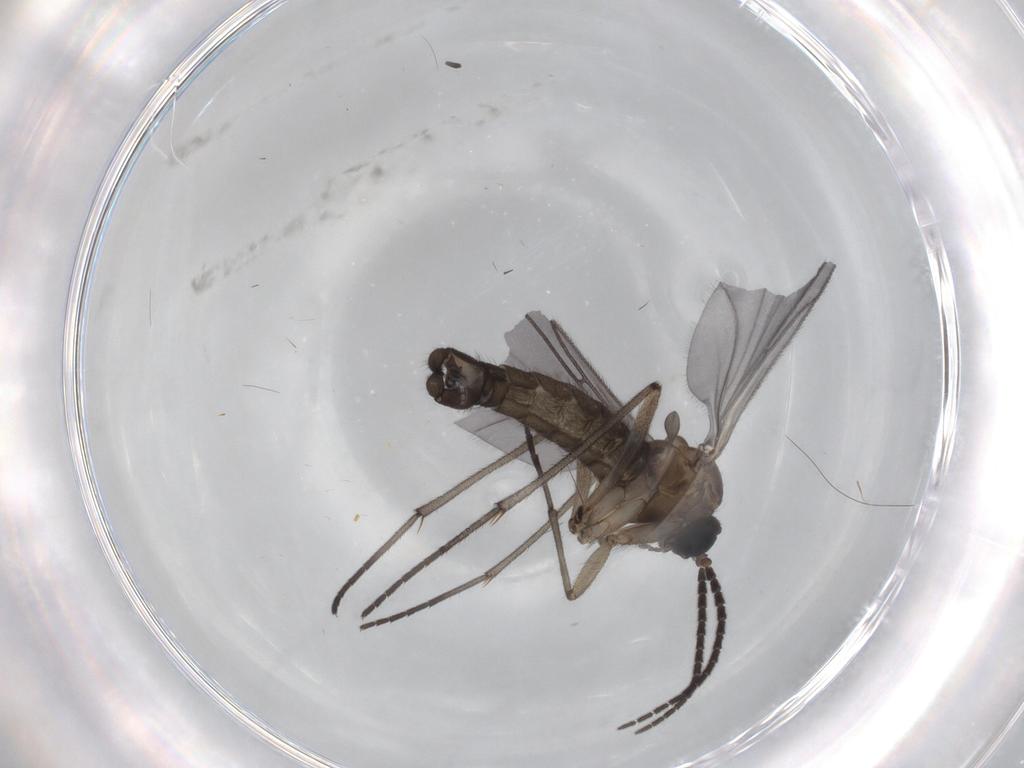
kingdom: Animalia
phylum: Arthropoda
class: Insecta
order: Diptera
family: Sciaridae
